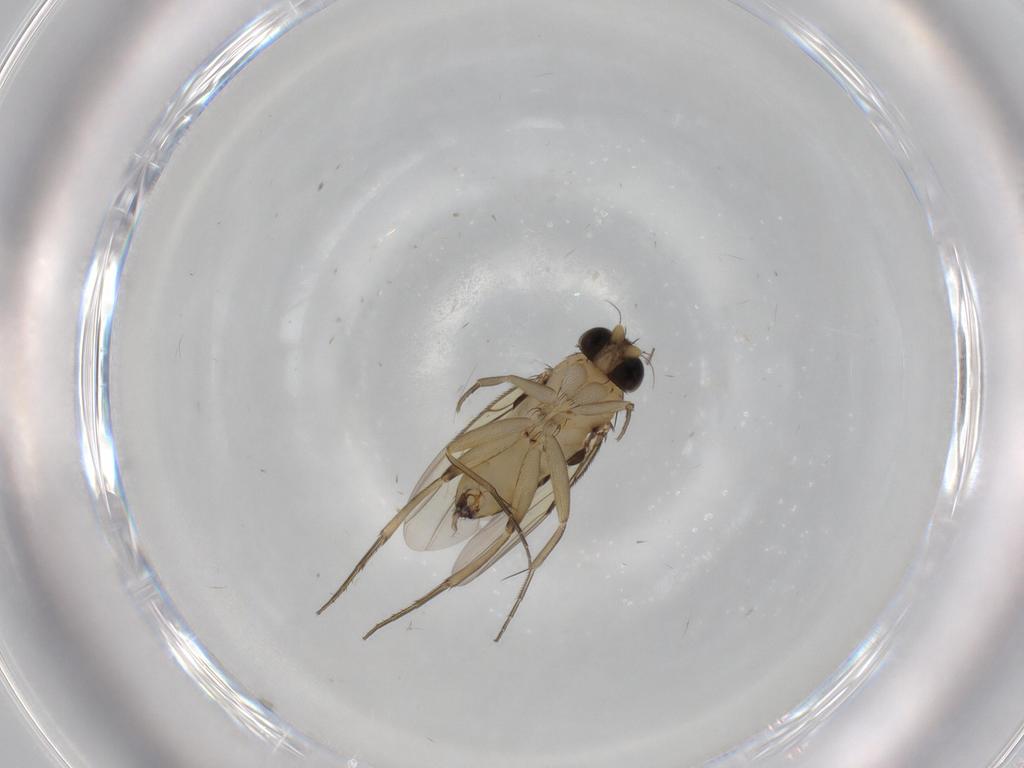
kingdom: Animalia
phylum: Arthropoda
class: Insecta
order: Diptera
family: Phoridae
